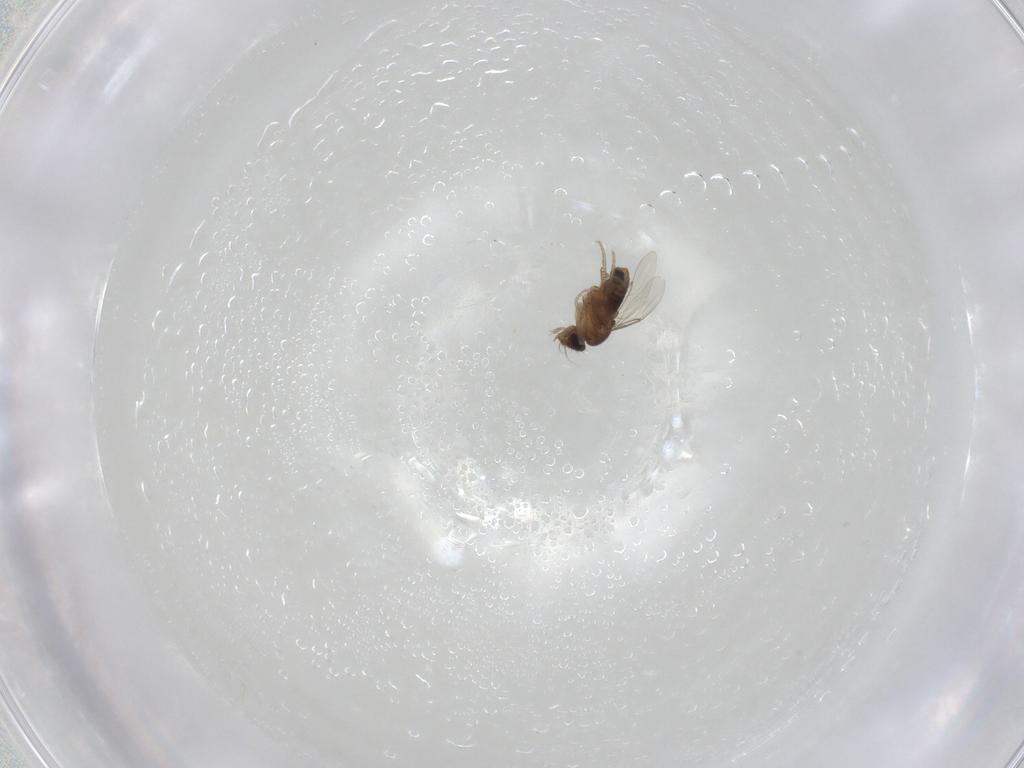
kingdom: Animalia
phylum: Arthropoda
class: Insecta
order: Diptera
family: Phoridae
